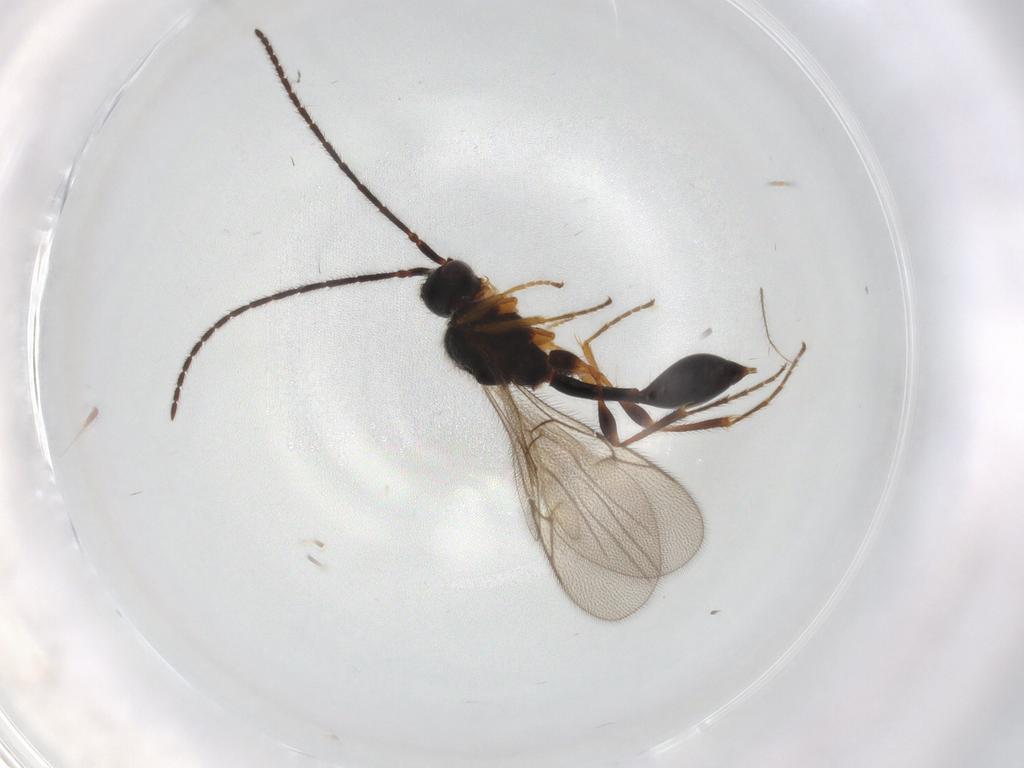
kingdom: Animalia
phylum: Arthropoda
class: Insecta
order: Hymenoptera
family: Diapriidae
